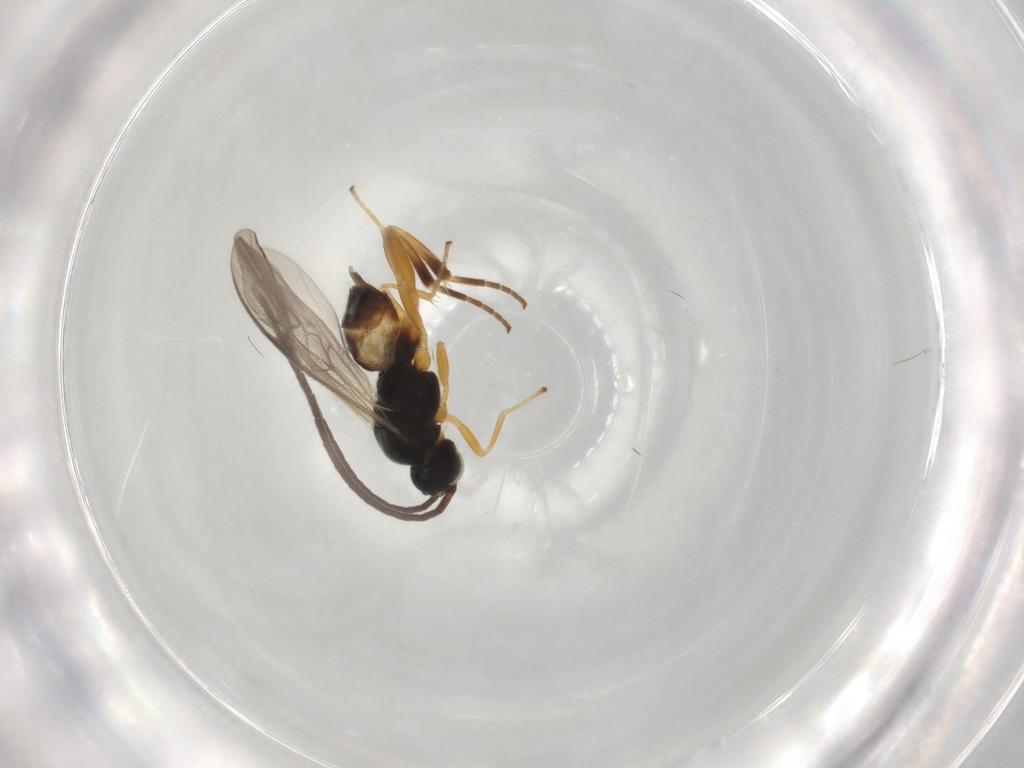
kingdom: Animalia
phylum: Arthropoda
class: Insecta
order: Hymenoptera
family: Braconidae
